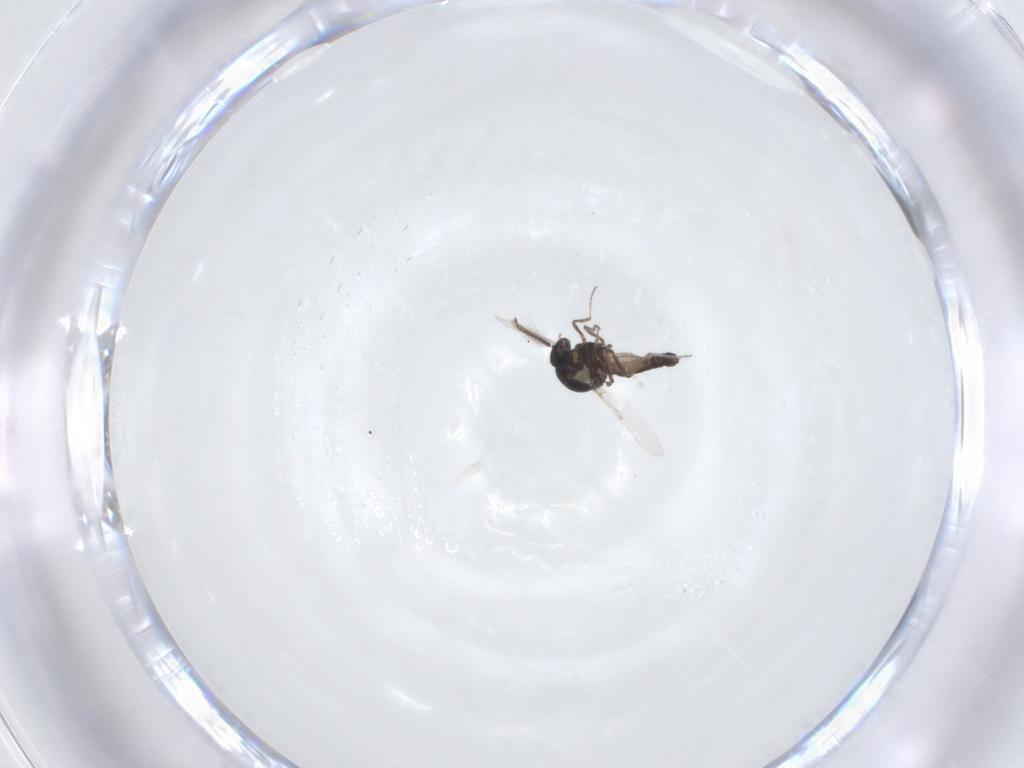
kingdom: Animalia
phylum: Arthropoda
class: Insecta
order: Diptera
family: Ceratopogonidae
